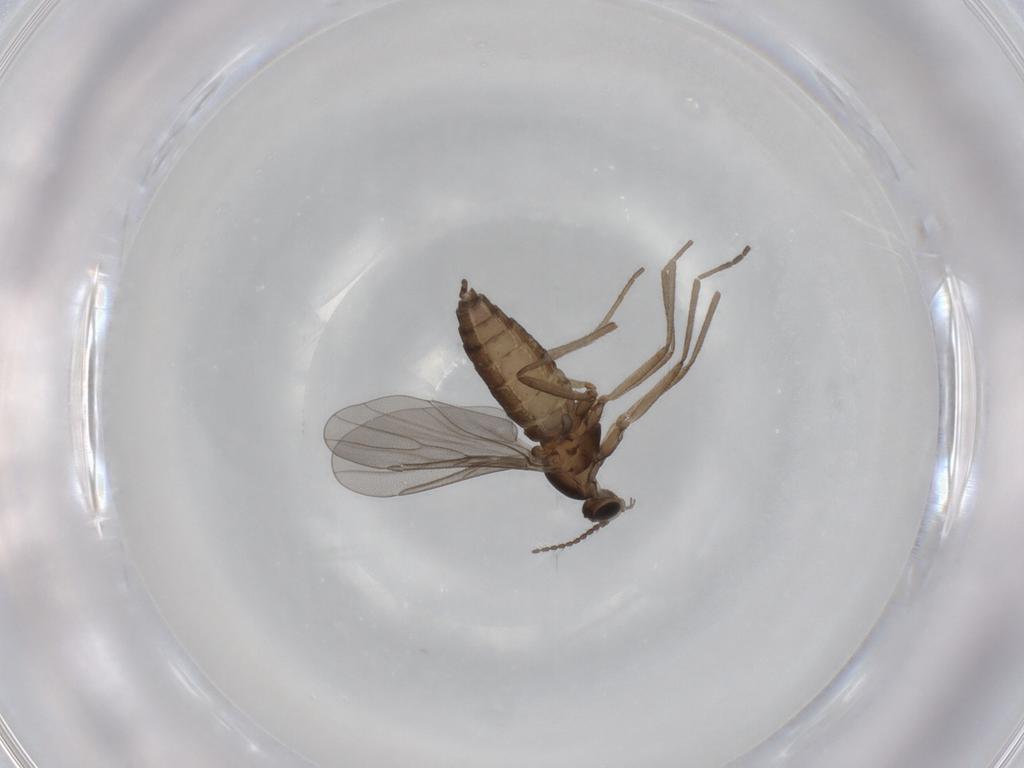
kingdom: Animalia
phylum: Arthropoda
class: Insecta
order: Diptera
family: Cecidomyiidae
